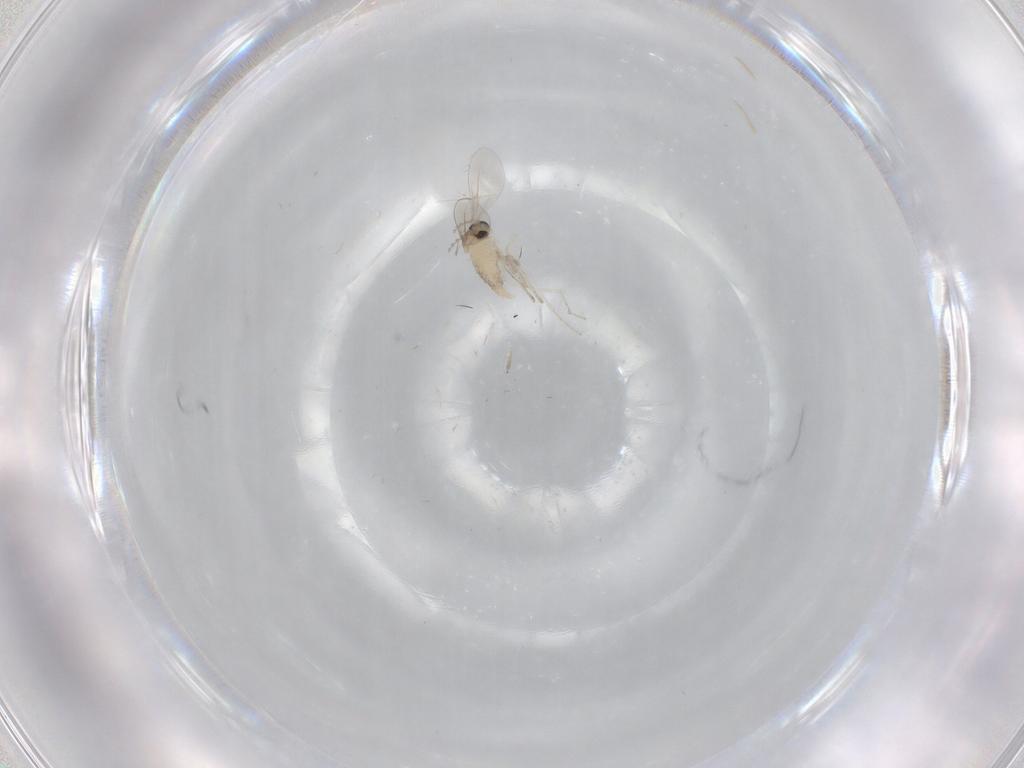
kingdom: Animalia
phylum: Arthropoda
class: Insecta
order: Diptera
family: Cecidomyiidae
